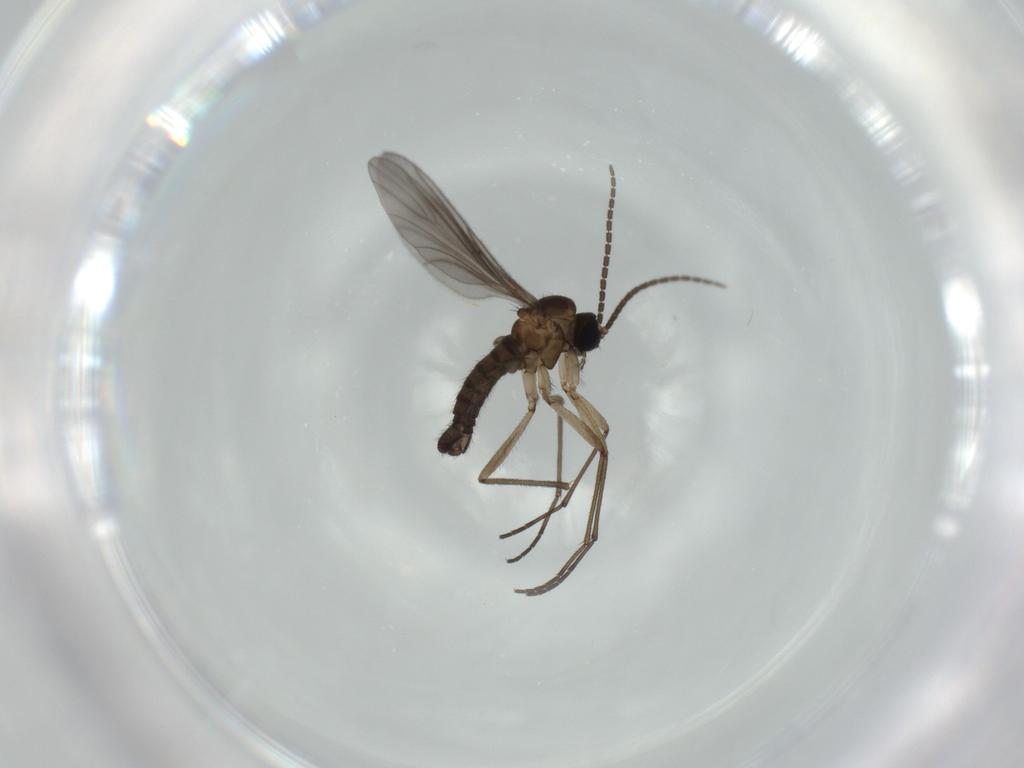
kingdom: Animalia
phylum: Arthropoda
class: Insecta
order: Diptera
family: Sciaridae
